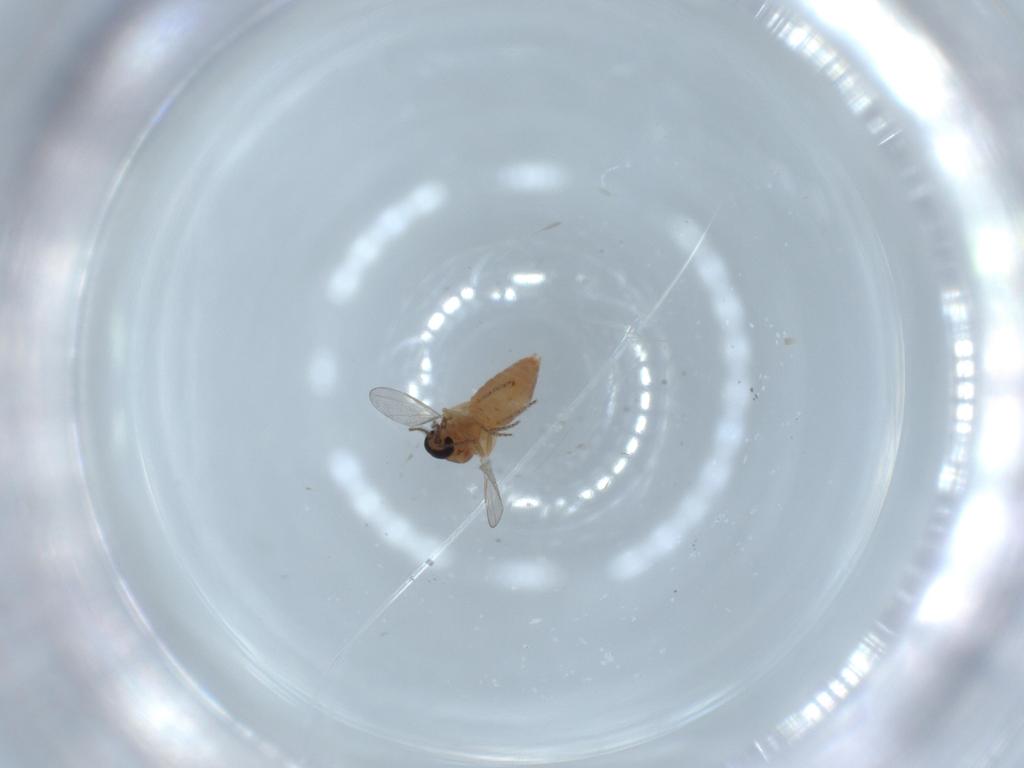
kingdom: Animalia
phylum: Arthropoda
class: Insecta
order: Diptera
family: Ceratopogonidae
